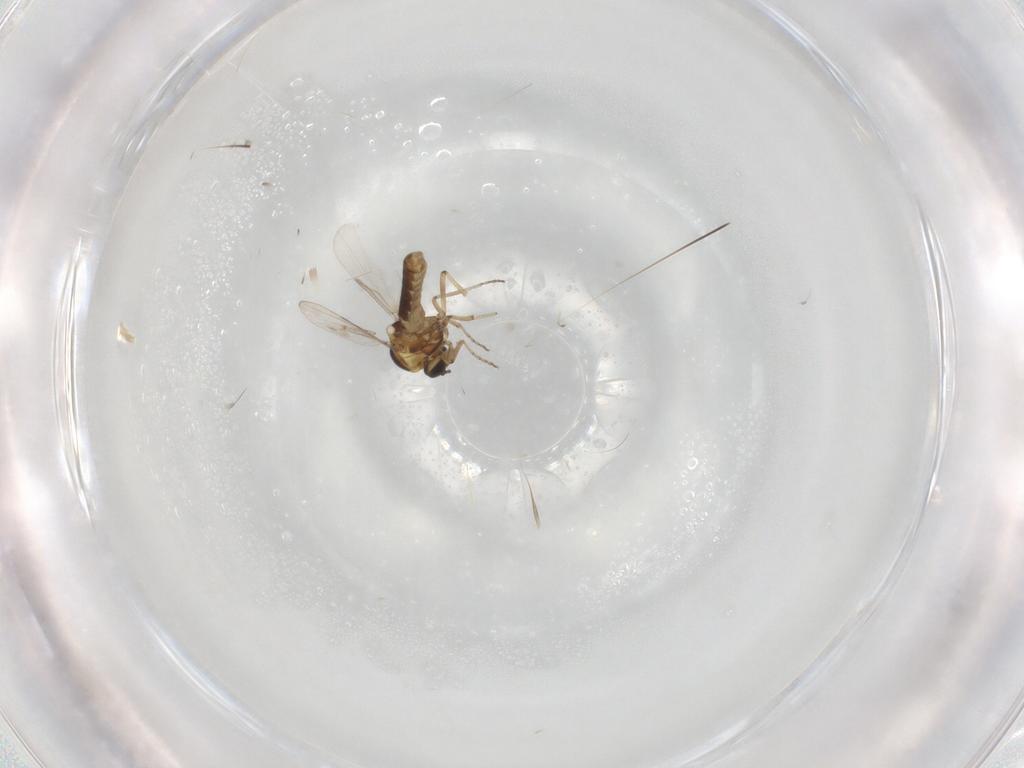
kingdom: Animalia
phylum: Arthropoda
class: Insecta
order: Diptera
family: Ceratopogonidae
